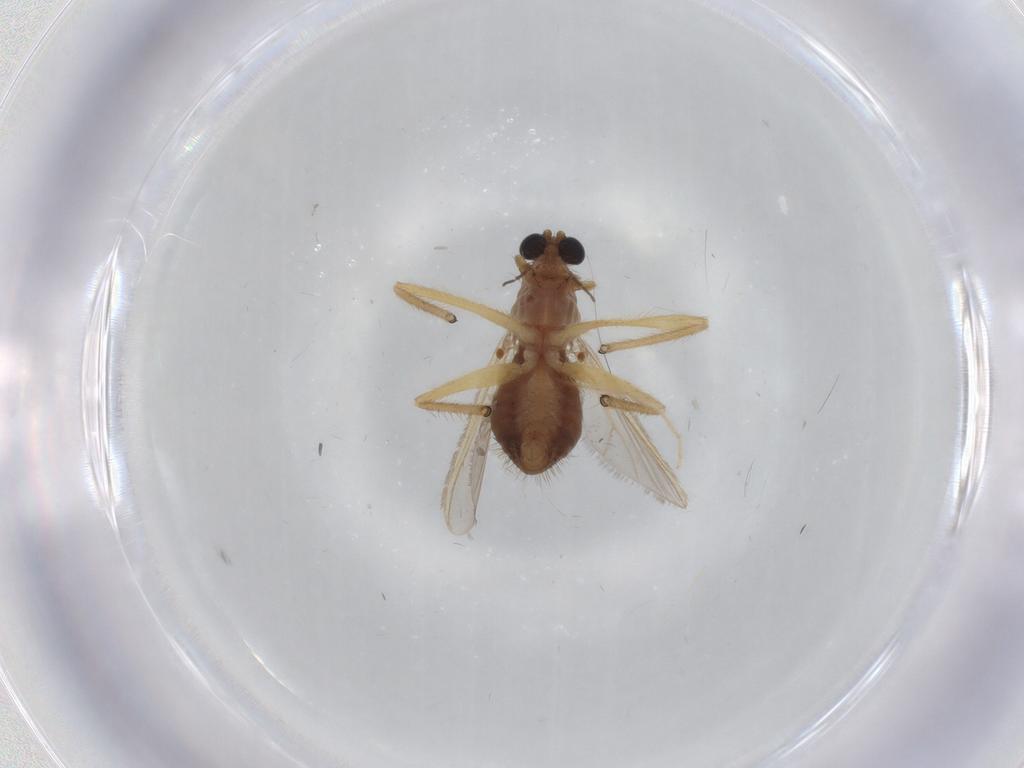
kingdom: Animalia
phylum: Arthropoda
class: Insecta
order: Diptera
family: Chironomidae
